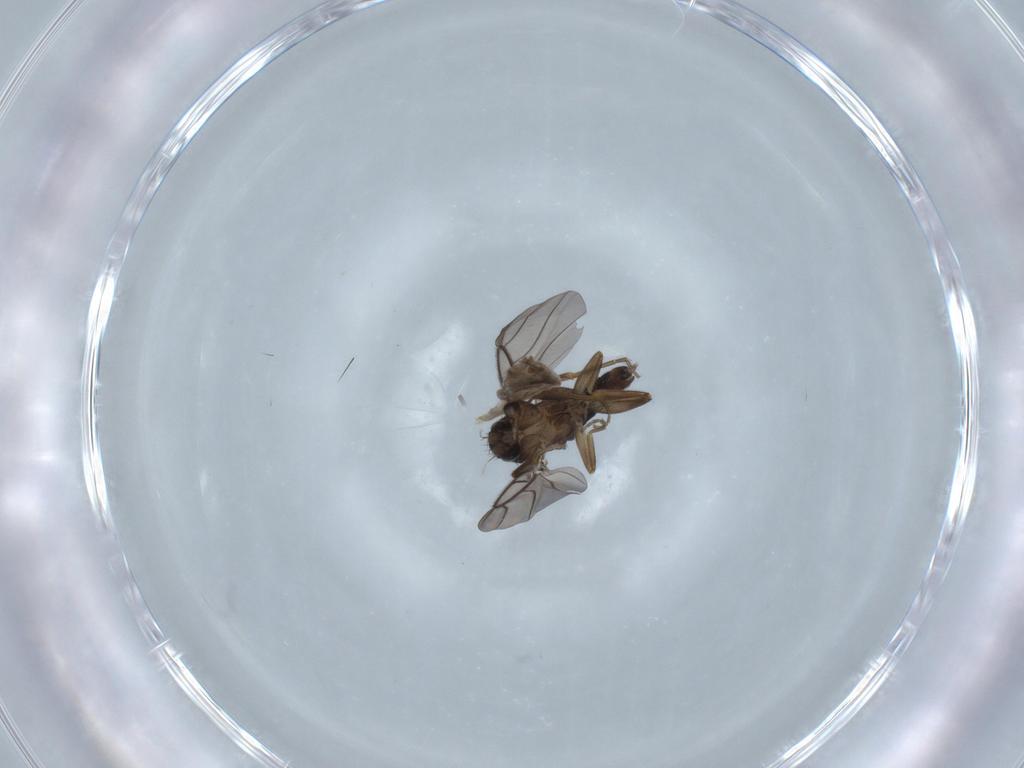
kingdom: Animalia
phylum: Arthropoda
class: Insecta
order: Diptera
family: Phoridae
